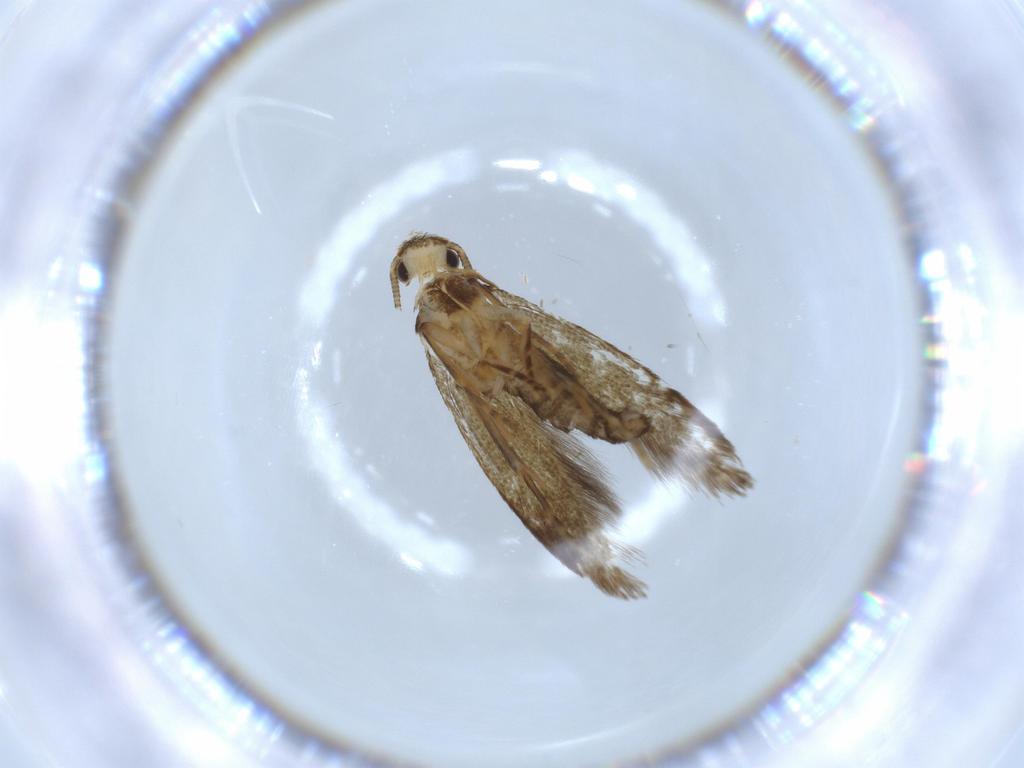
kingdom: Animalia
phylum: Arthropoda
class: Insecta
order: Lepidoptera
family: Tineidae
